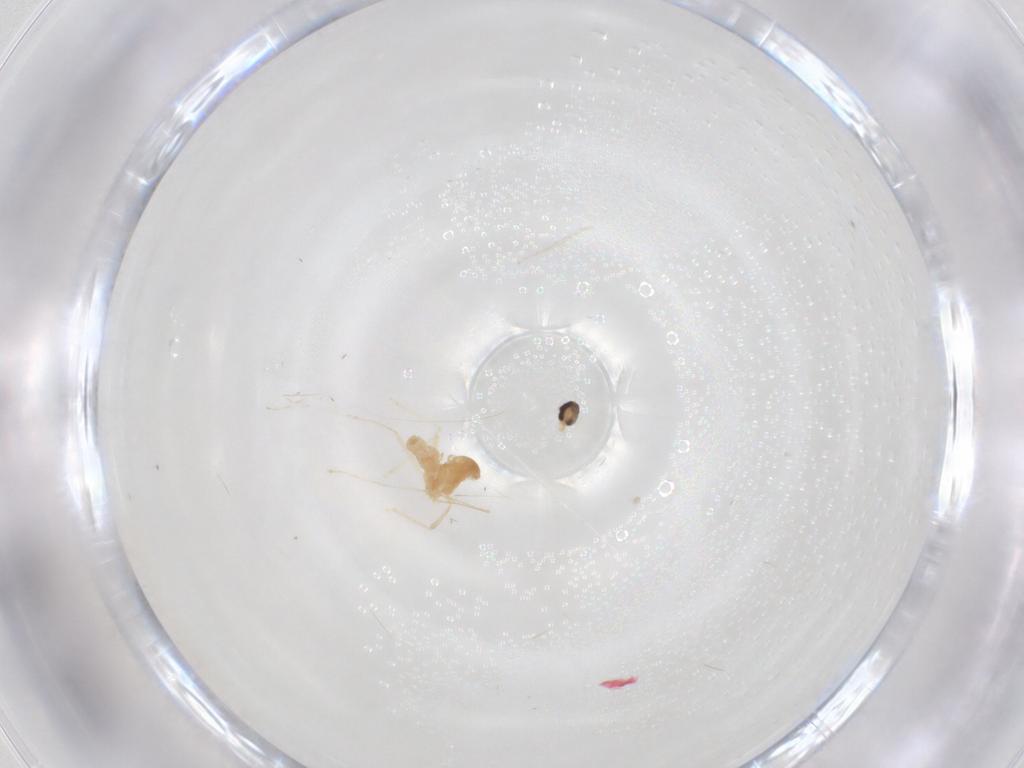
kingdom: Animalia
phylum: Arthropoda
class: Insecta
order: Diptera
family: Cecidomyiidae
